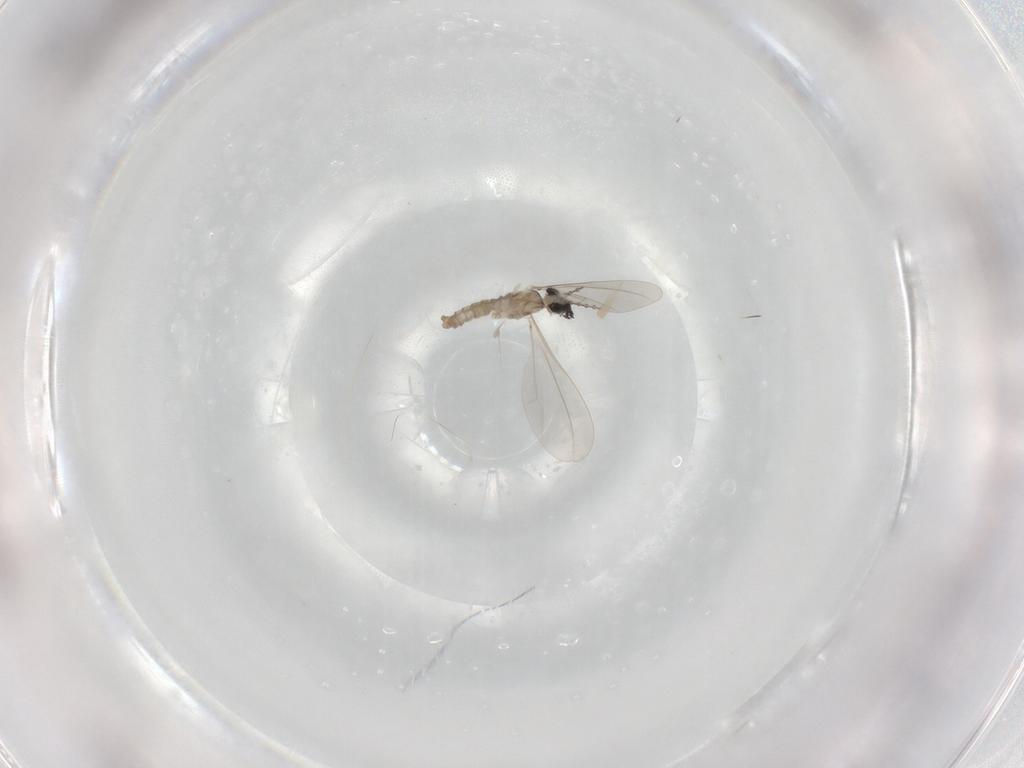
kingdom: Animalia
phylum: Arthropoda
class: Insecta
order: Diptera
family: Cecidomyiidae
